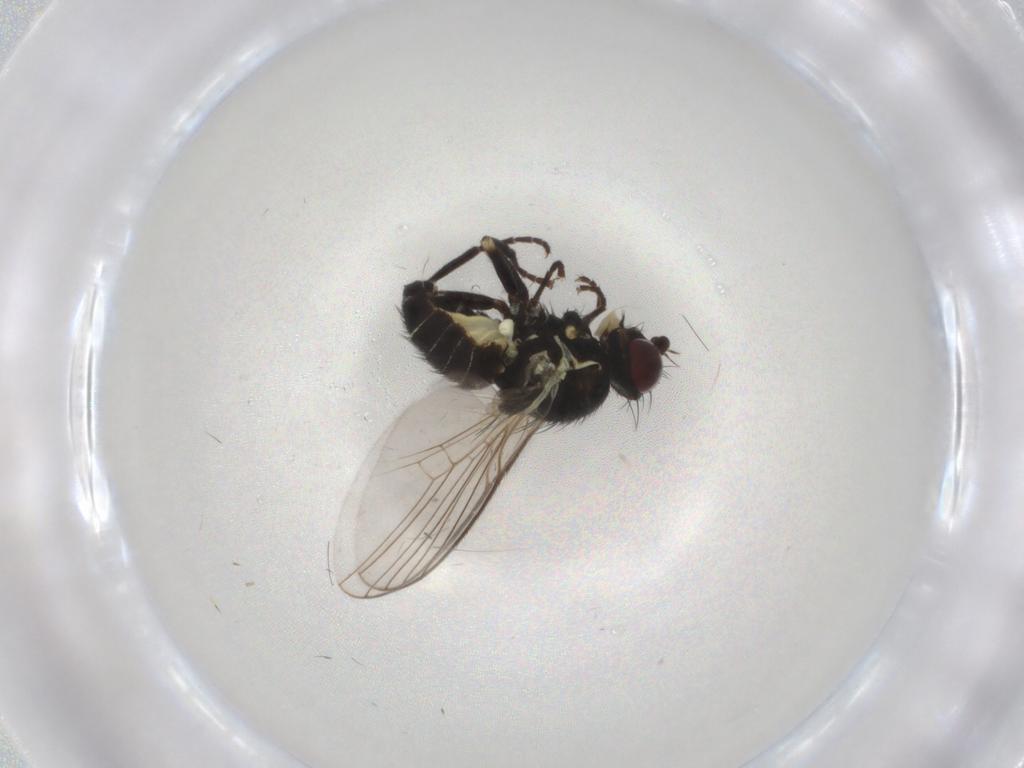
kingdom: Animalia
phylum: Arthropoda
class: Insecta
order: Diptera
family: Agromyzidae
